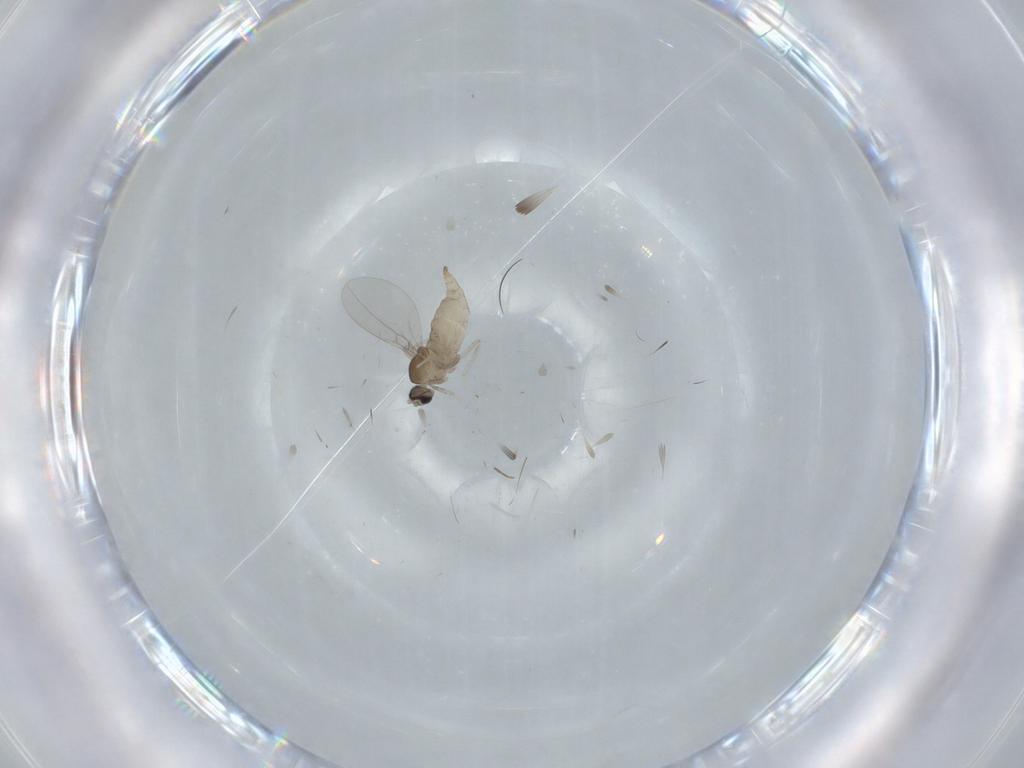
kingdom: Animalia
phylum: Arthropoda
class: Insecta
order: Diptera
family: Cecidomyiidae
